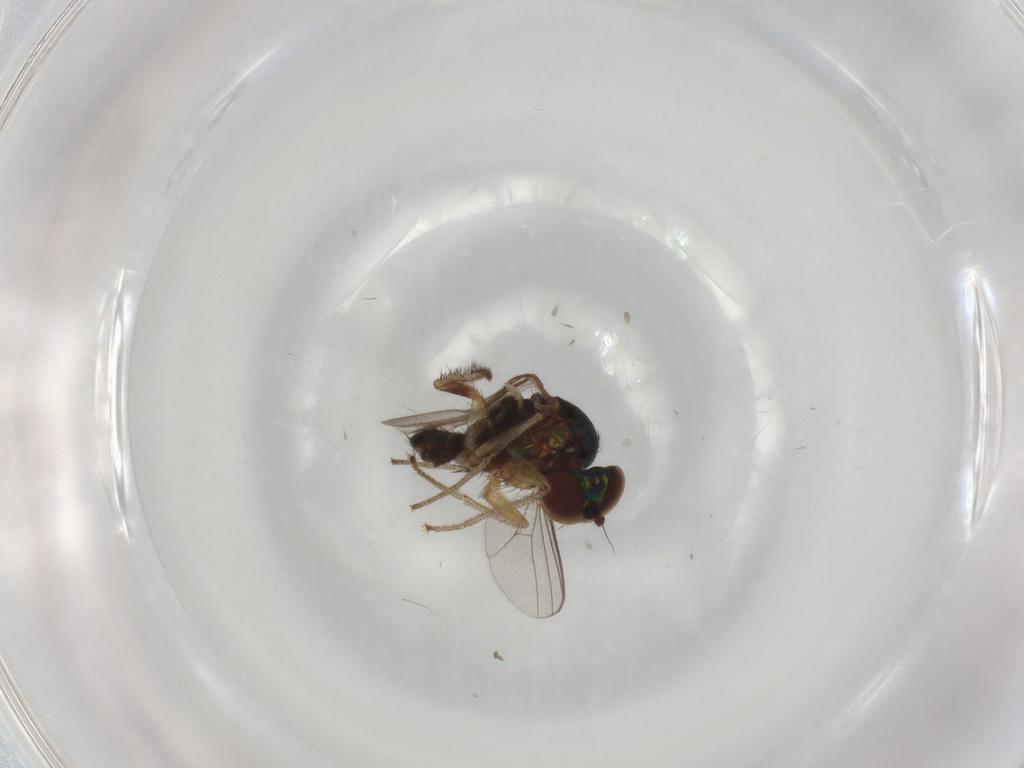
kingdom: Animalia
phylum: Arthropoda
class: Insecta
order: Diptera
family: Dolichopodidae
